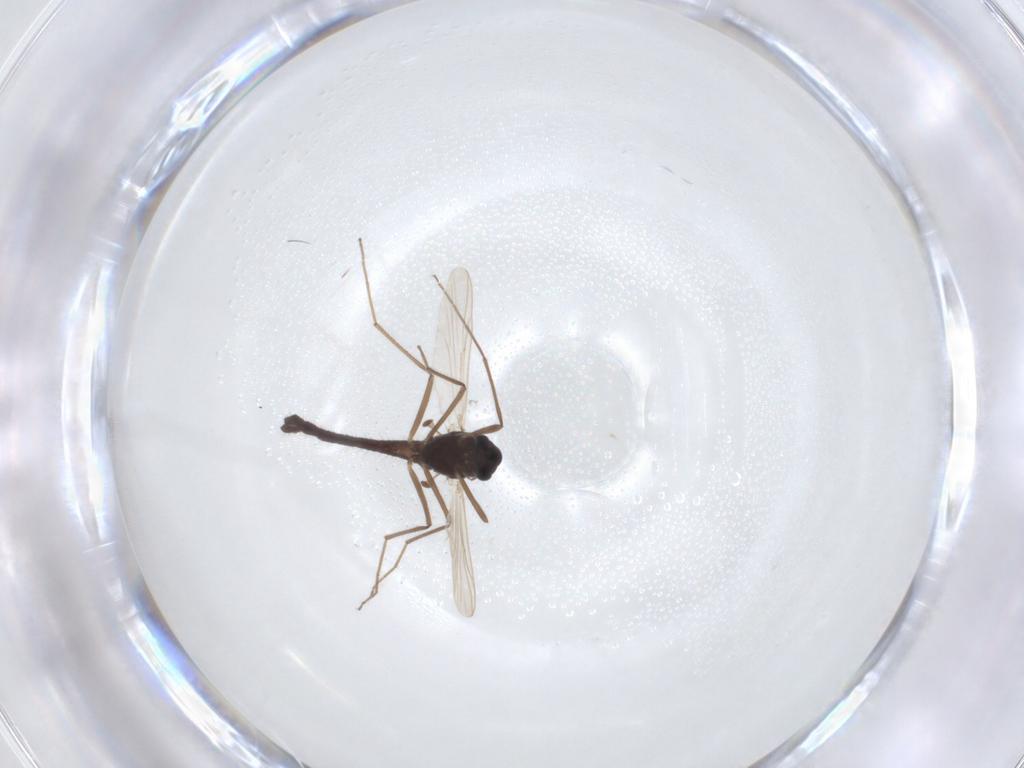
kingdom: Animalia
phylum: Arthropoda
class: Insecta
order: Diptera
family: Chironomidae
